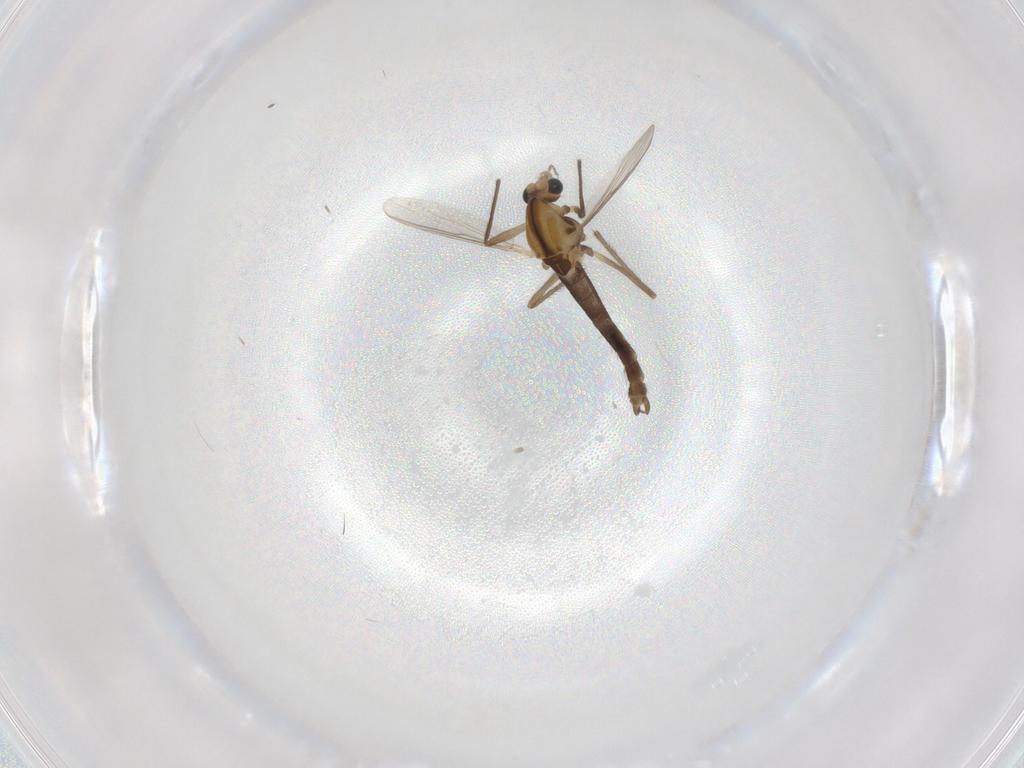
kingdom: Animalia
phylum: Arthropoda
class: Insecta
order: Diptera
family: Chironomidae
